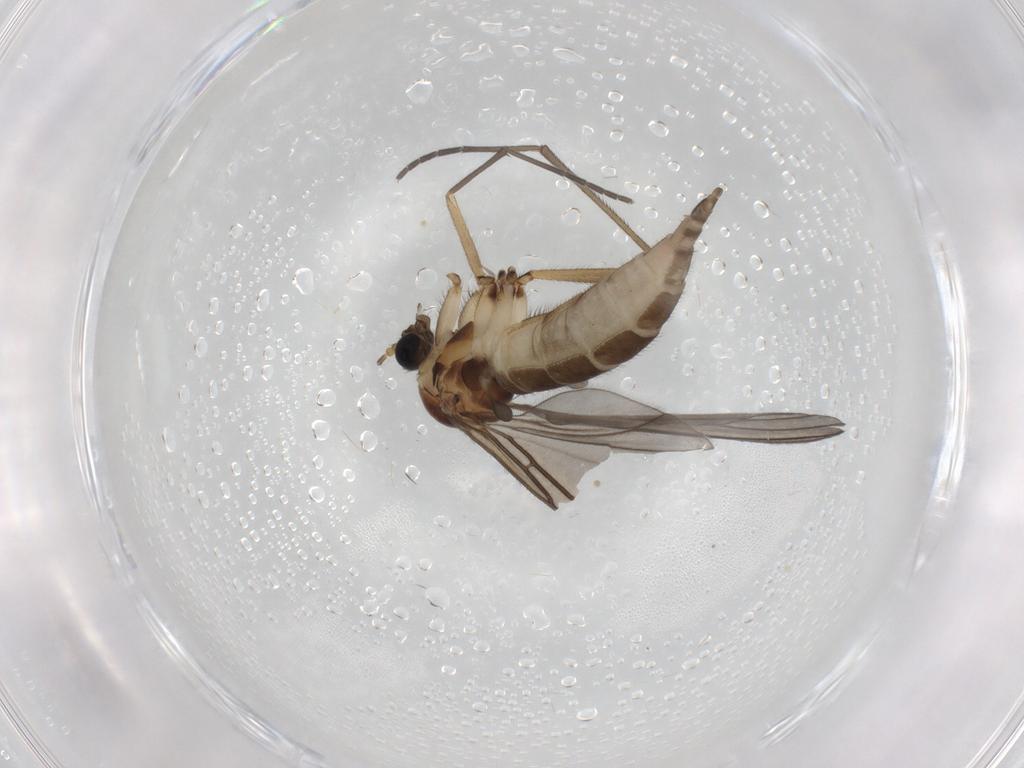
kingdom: Animalia
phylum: Arthropoda
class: Insecta
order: Diptera
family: Sciaridae
